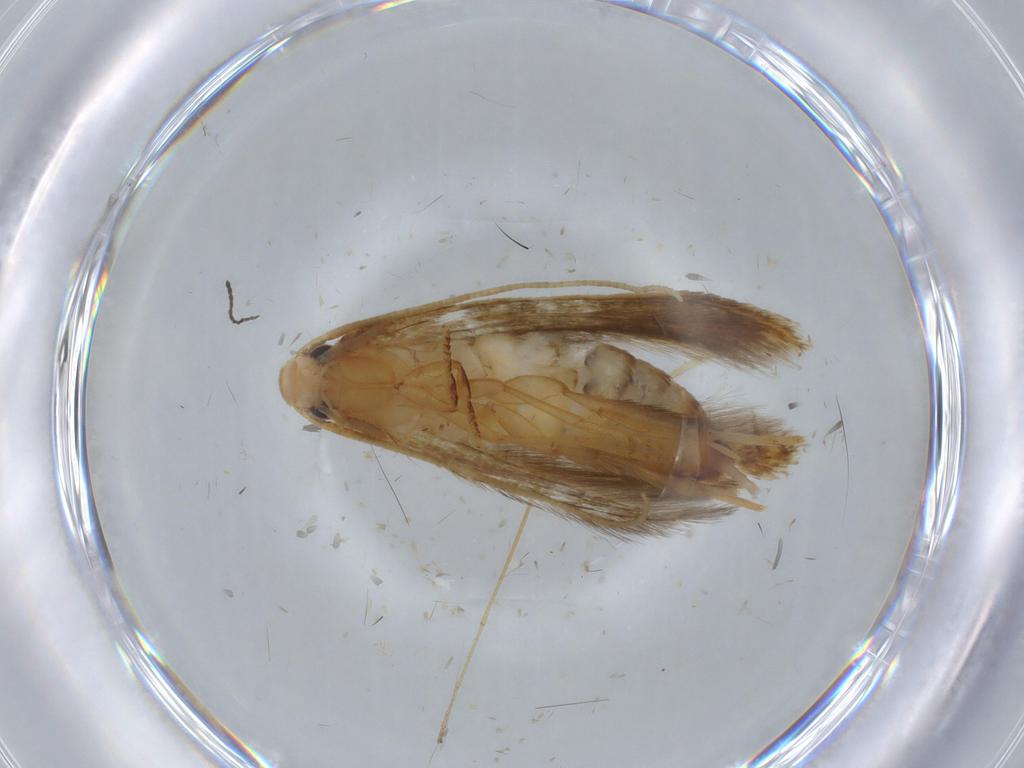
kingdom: Animalia
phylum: Arthropoda
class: Insecta
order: Lepidoptera
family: Tineidae
